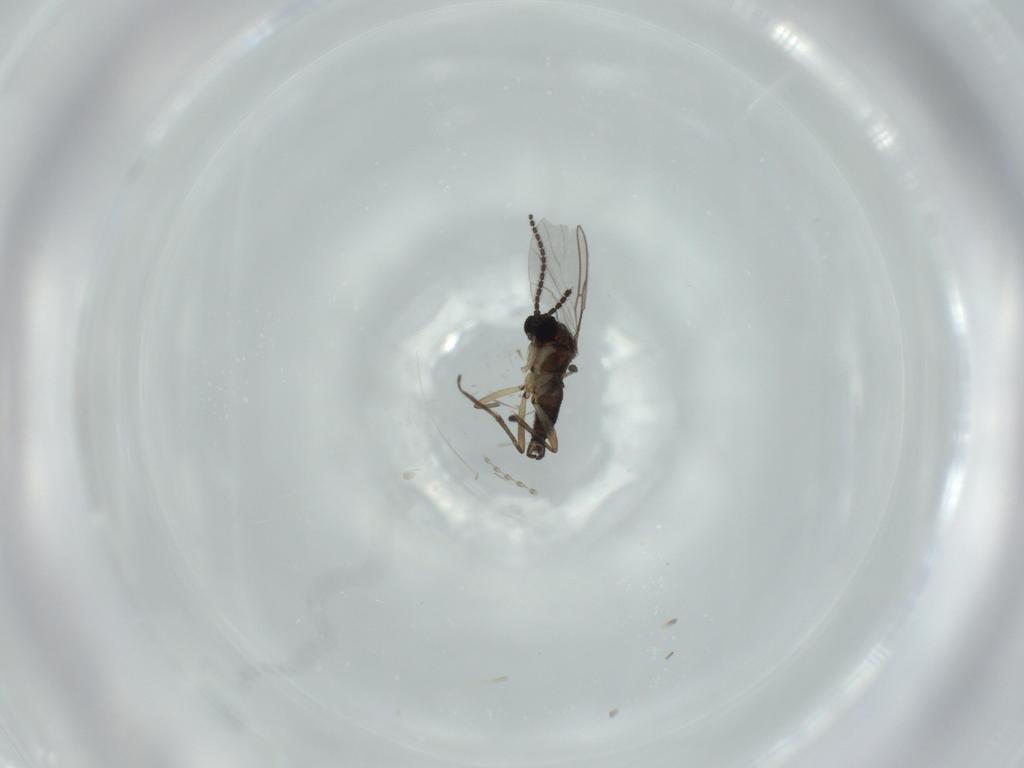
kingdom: Animalia
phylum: Arthropoda
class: Insecta
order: Diptera
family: Sciaridae
